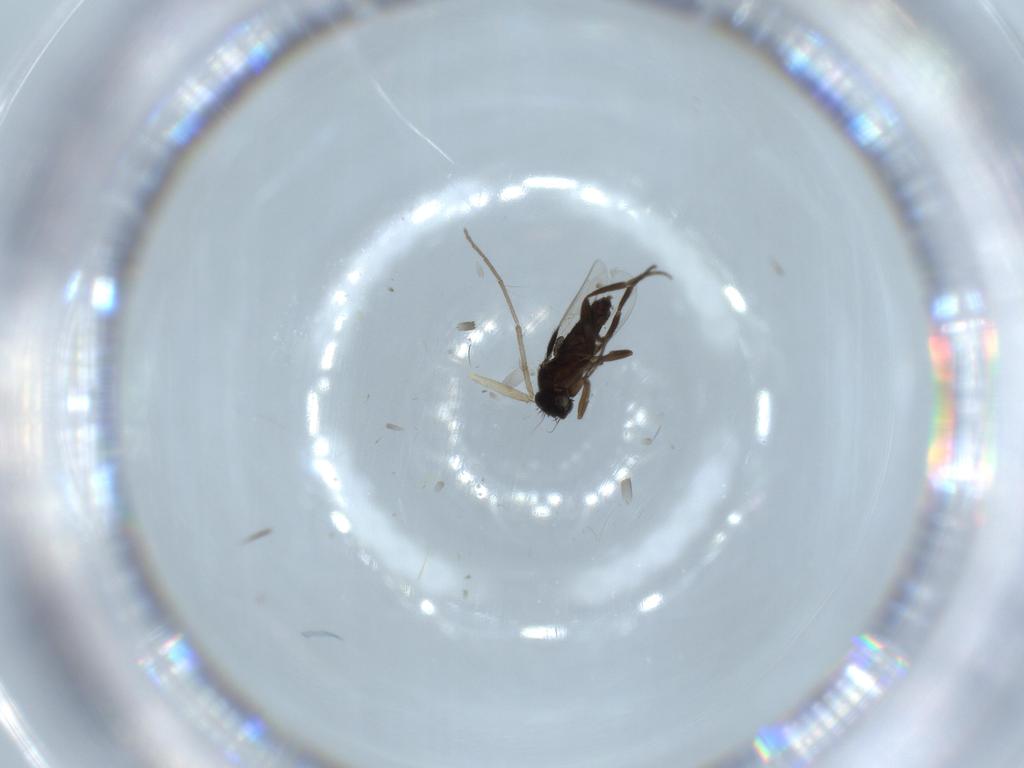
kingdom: Animalia
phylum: Arthropoda
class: Insecta
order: Diptera
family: Chironomidae
